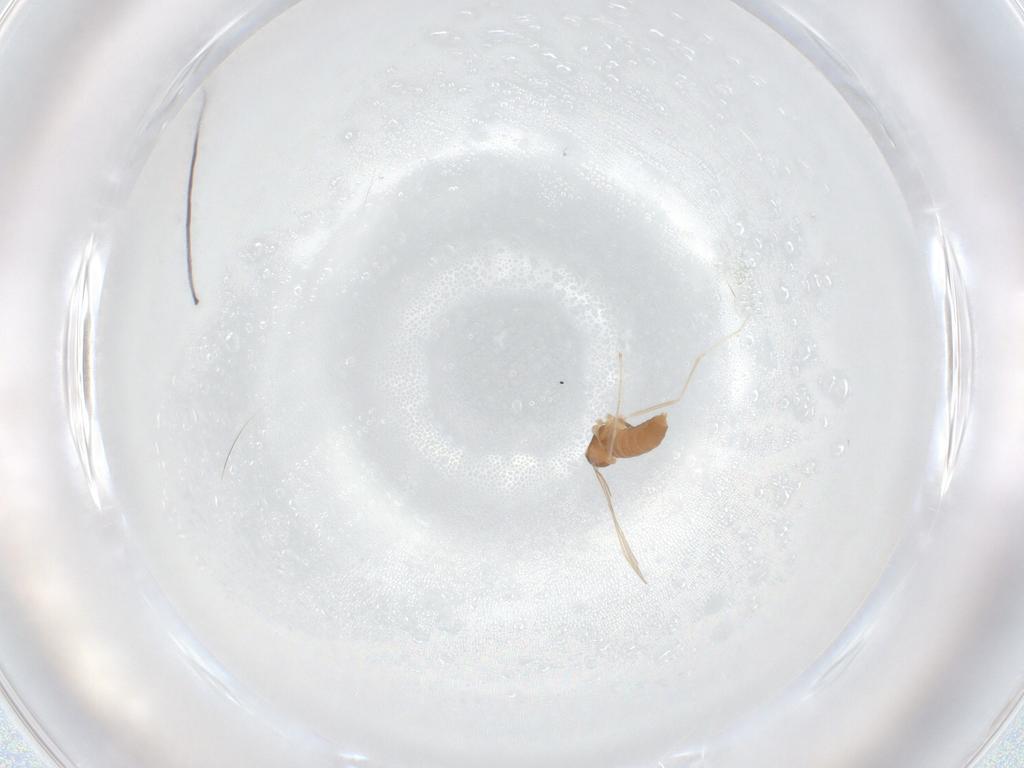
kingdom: Animalia
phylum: Arthropoda
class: Insecta
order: Diptera
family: Cecidomyiidae
